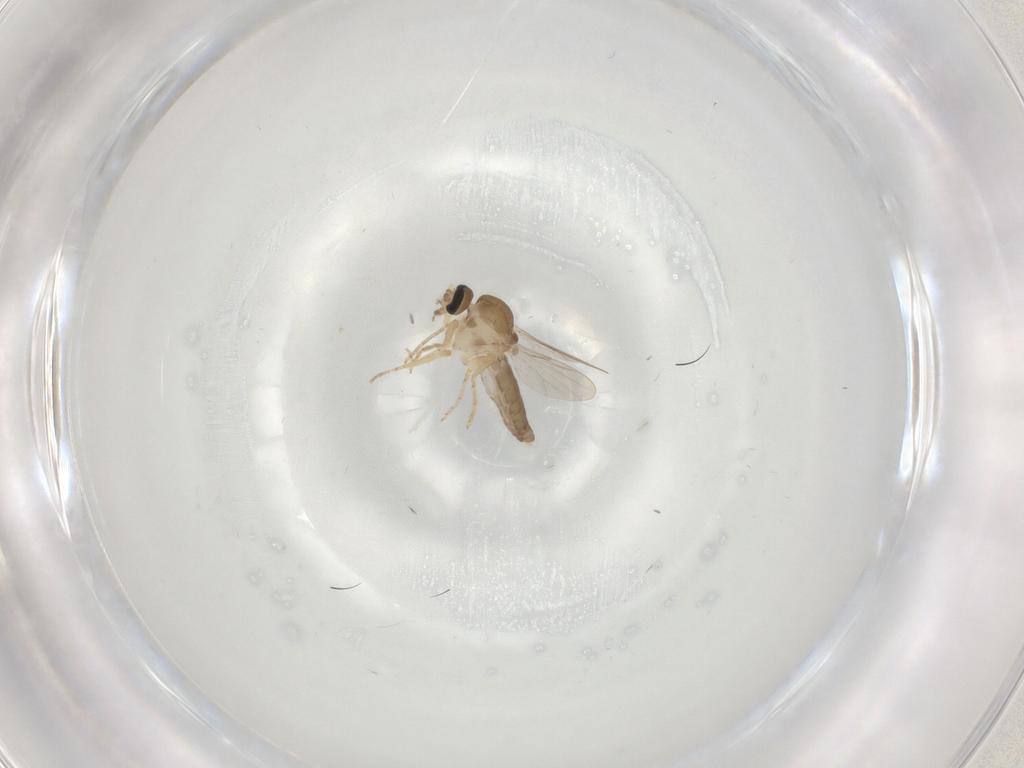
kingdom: Animalia
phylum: Arthropoda
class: Insecta
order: Diptera
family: Ceratopogonidae
